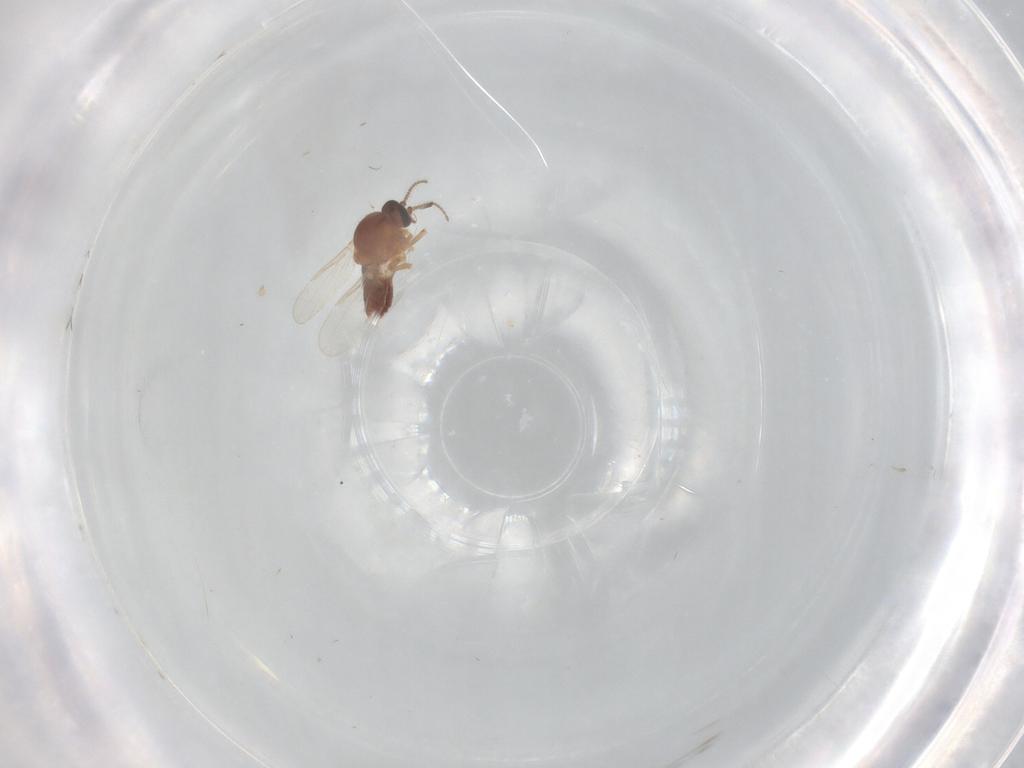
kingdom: Animalia
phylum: Arthropoda
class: Insecta
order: Diptera
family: Ceratopogonidae
